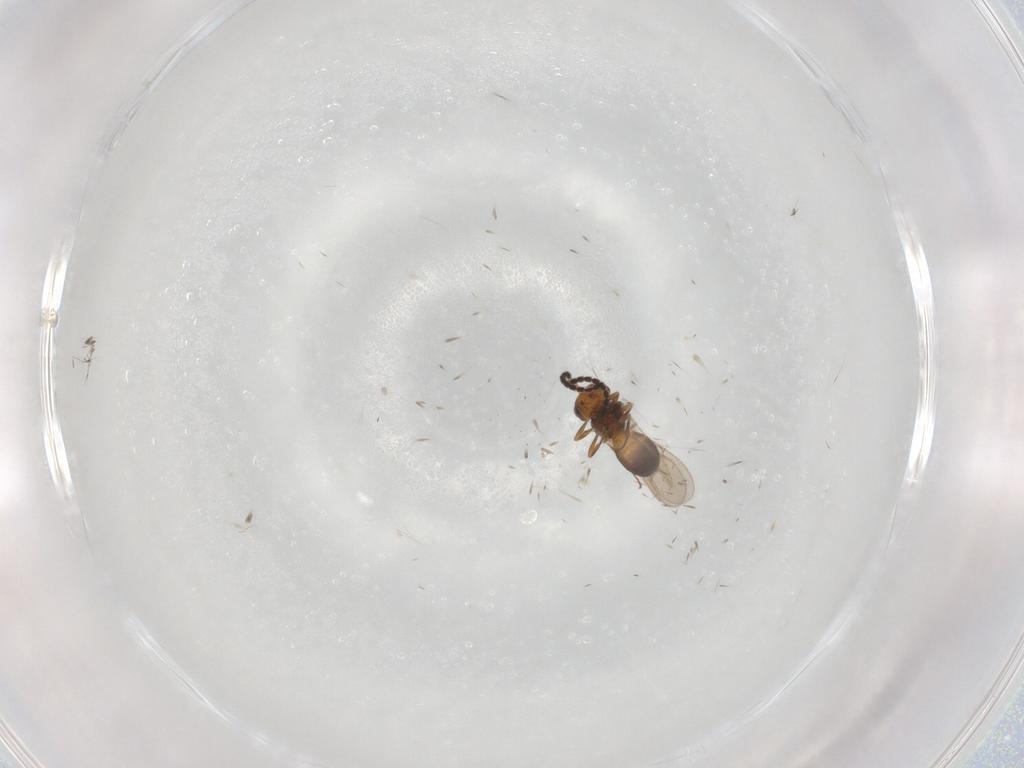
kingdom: Animalia
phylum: Arthropoda
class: Insecta
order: Hymenoptera
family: Scelionidae
